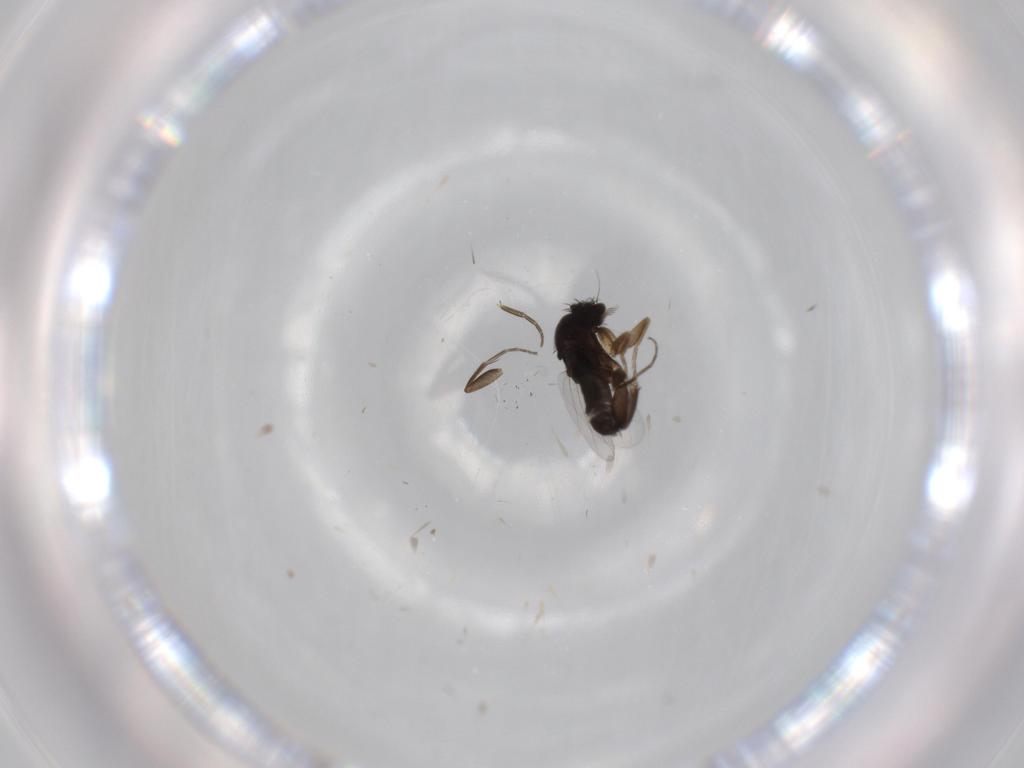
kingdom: Animalia
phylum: Arthropoda
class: Insecta
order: Diptera
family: Phoridae
